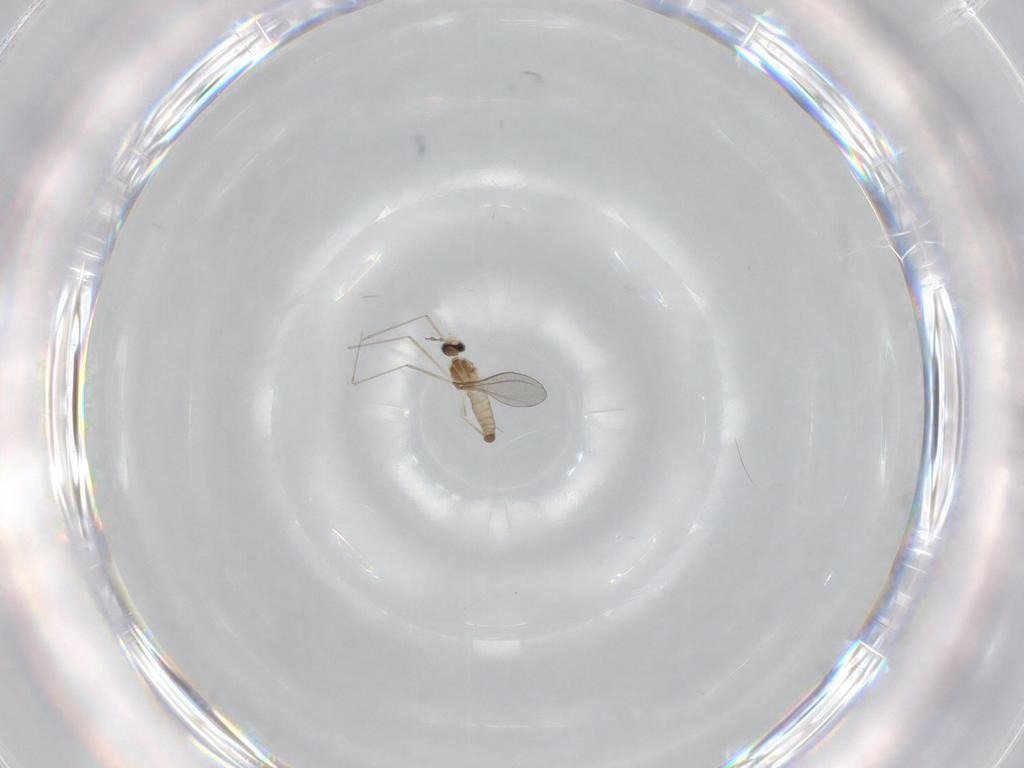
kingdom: Animalia
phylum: Arthropoda
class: Insecta
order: Diptera
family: Cecidomyiidae
